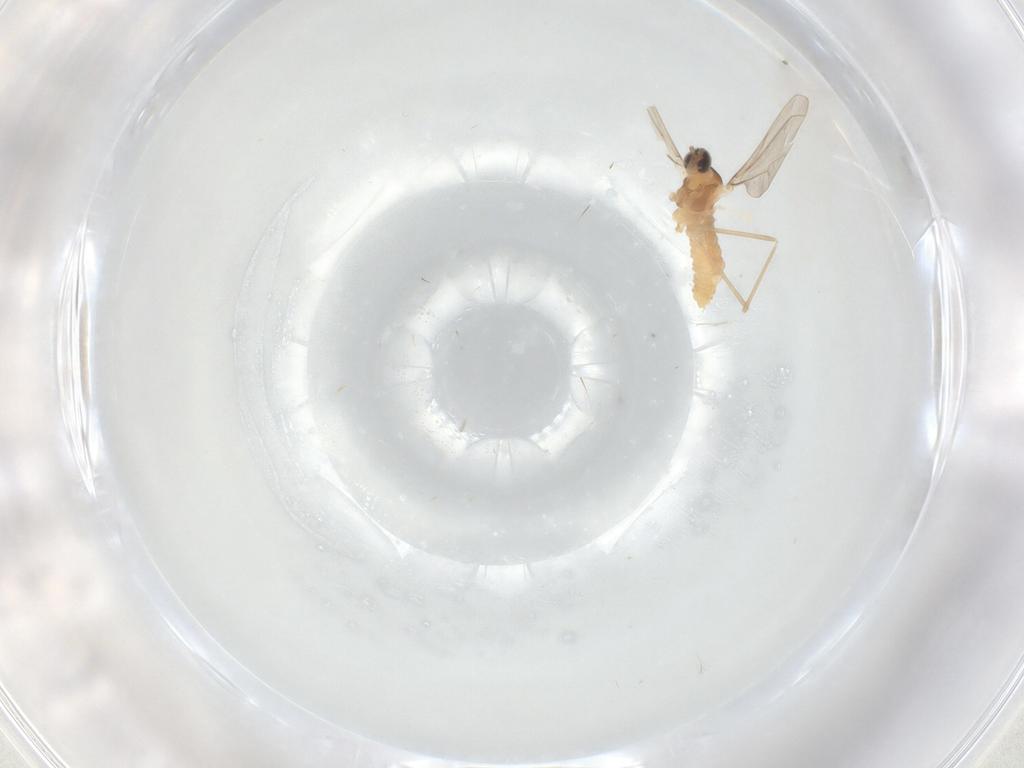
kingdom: Animalia
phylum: Arthropoda
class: Insecta
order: Diptera
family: Cecidomyiidae
